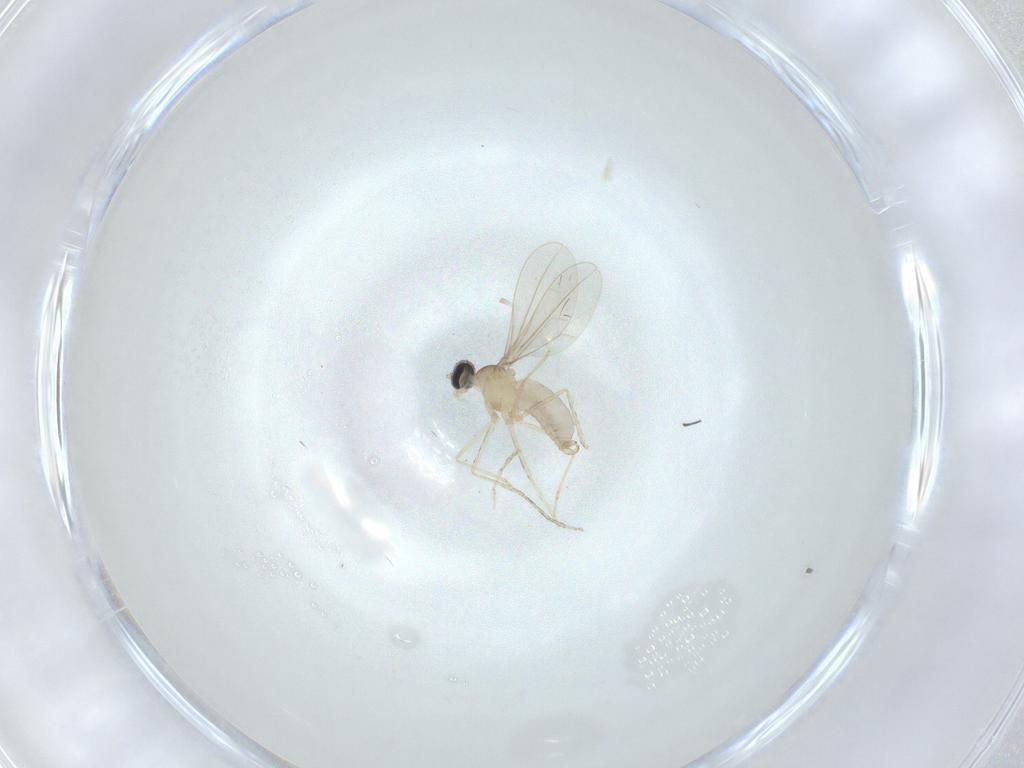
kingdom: Animalia
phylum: Arthropoda
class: Insecta
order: Diptera
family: Cecidomyiidae
